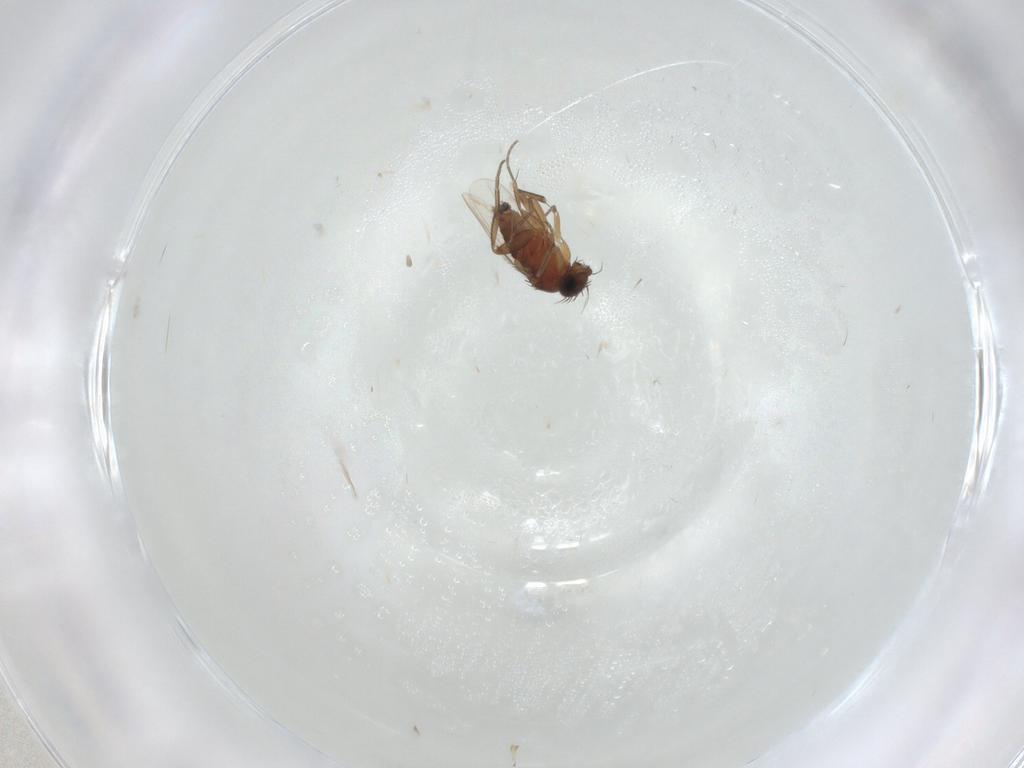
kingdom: Animalia
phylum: Arthropoda
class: Insecta
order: Diptera
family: Phoridae
